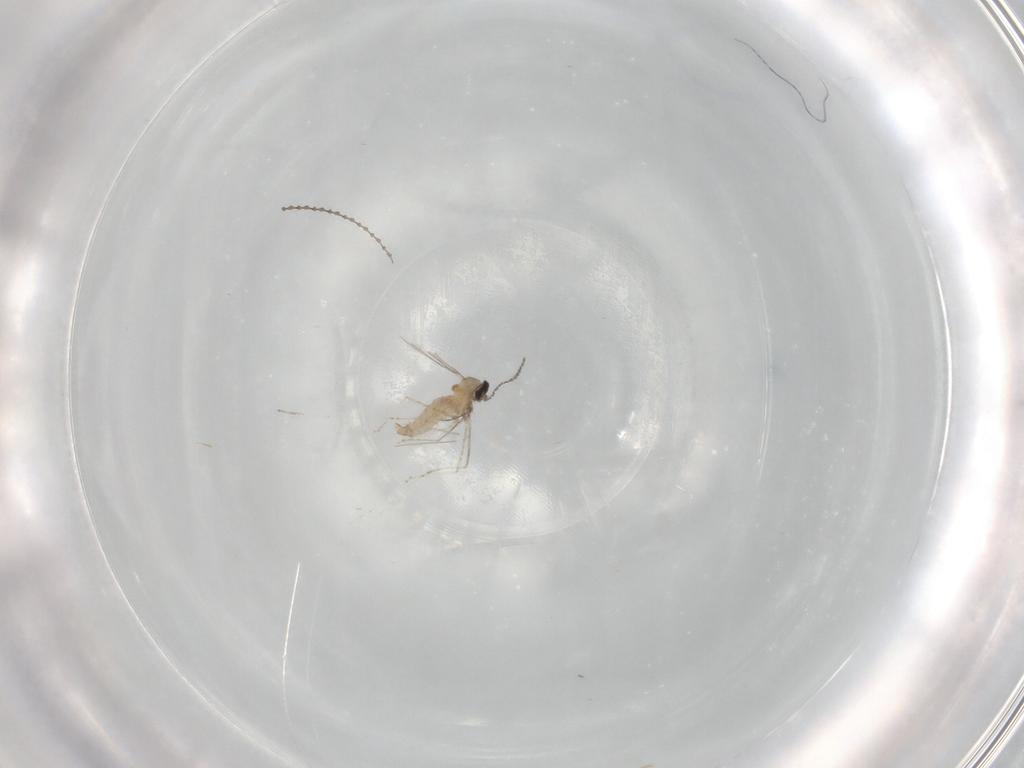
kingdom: Animalia
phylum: Arthropoda
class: Insecta
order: Diptera
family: Cecidomyiidae
